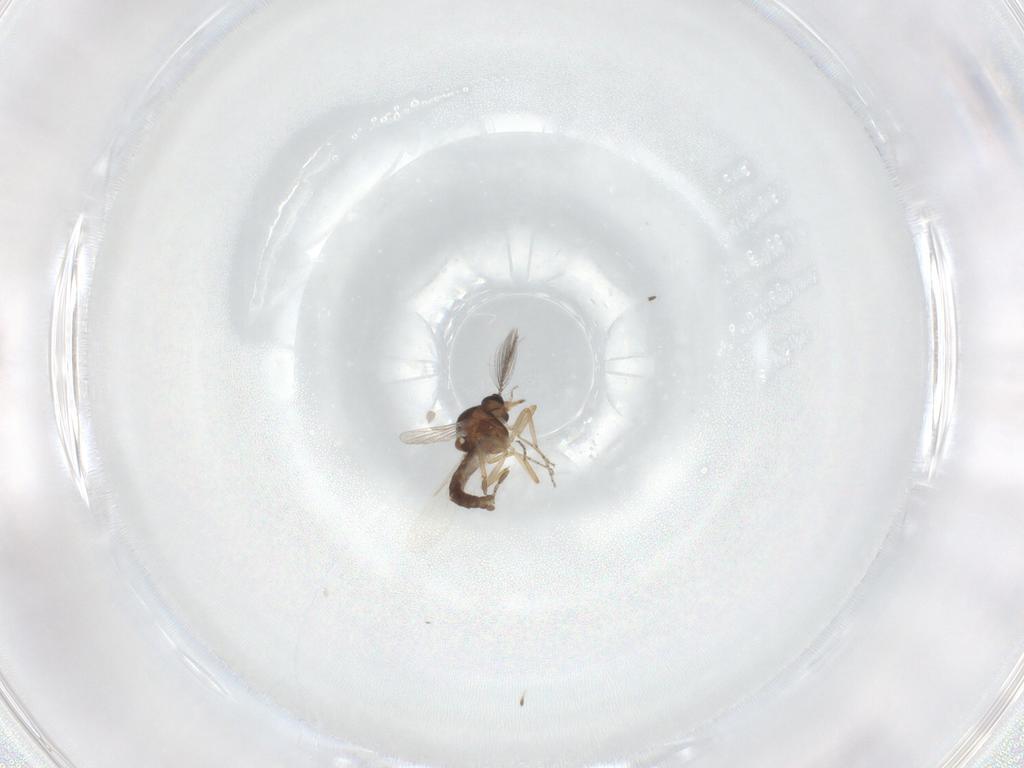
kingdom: Animalia
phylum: Arthropoda
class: Insecta
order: Diptera
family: Ceratopogonidae
